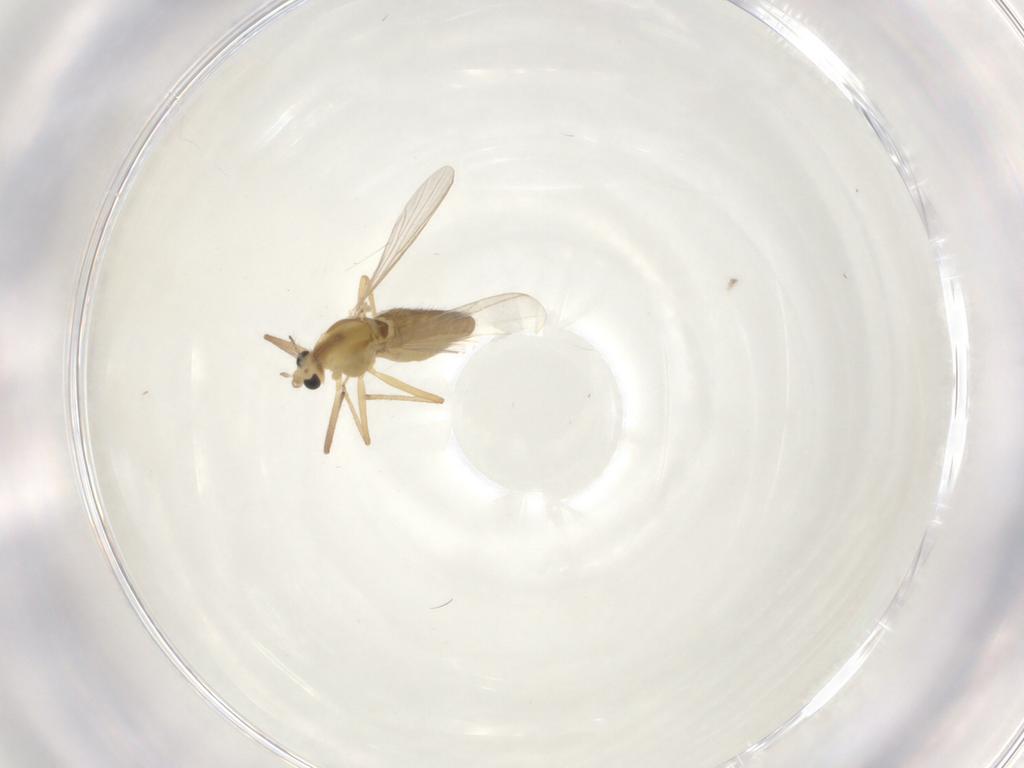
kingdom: Animalia
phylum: Arthropoda
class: Insecta
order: Diptera
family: Chironomidae
